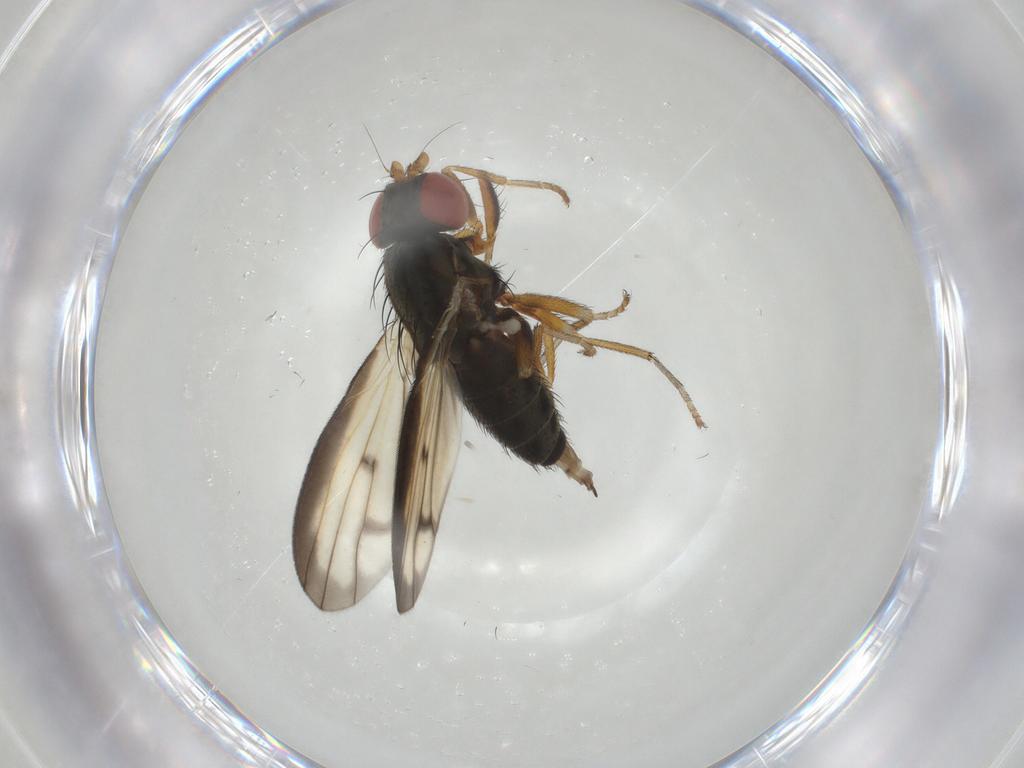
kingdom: Animalia
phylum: Arthropoda
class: Insecta
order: Diptera
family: Chamaemyiidae
